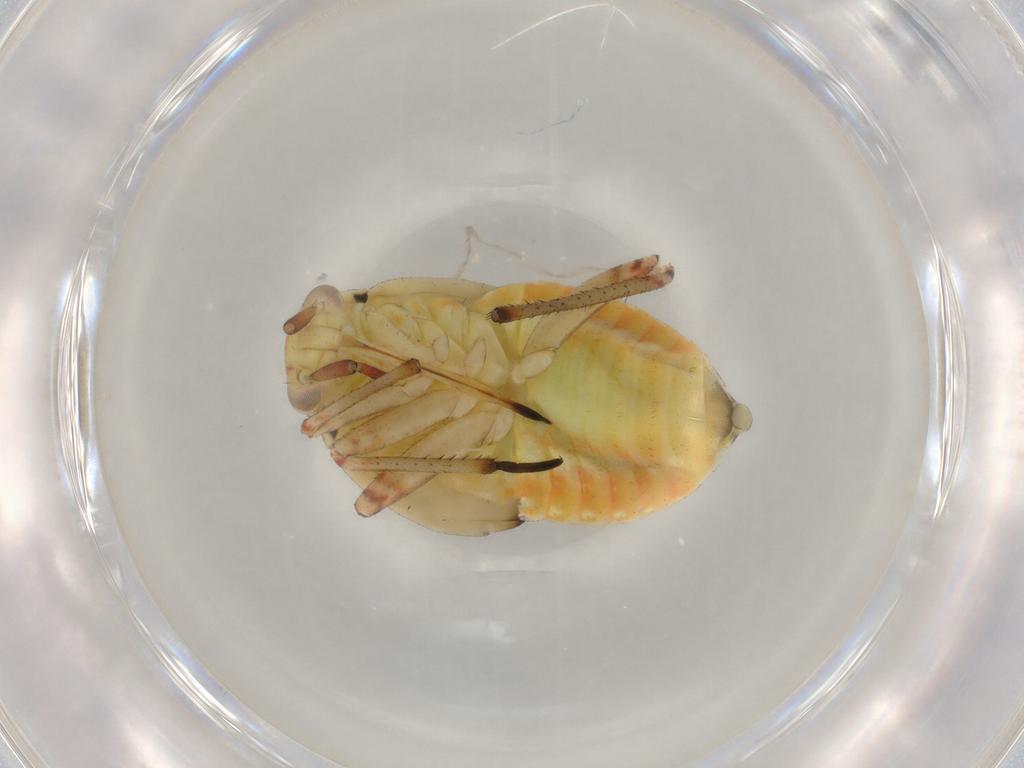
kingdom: Animalia
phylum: Arthropoda
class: Insecta
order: Hemiptera
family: Miridae
